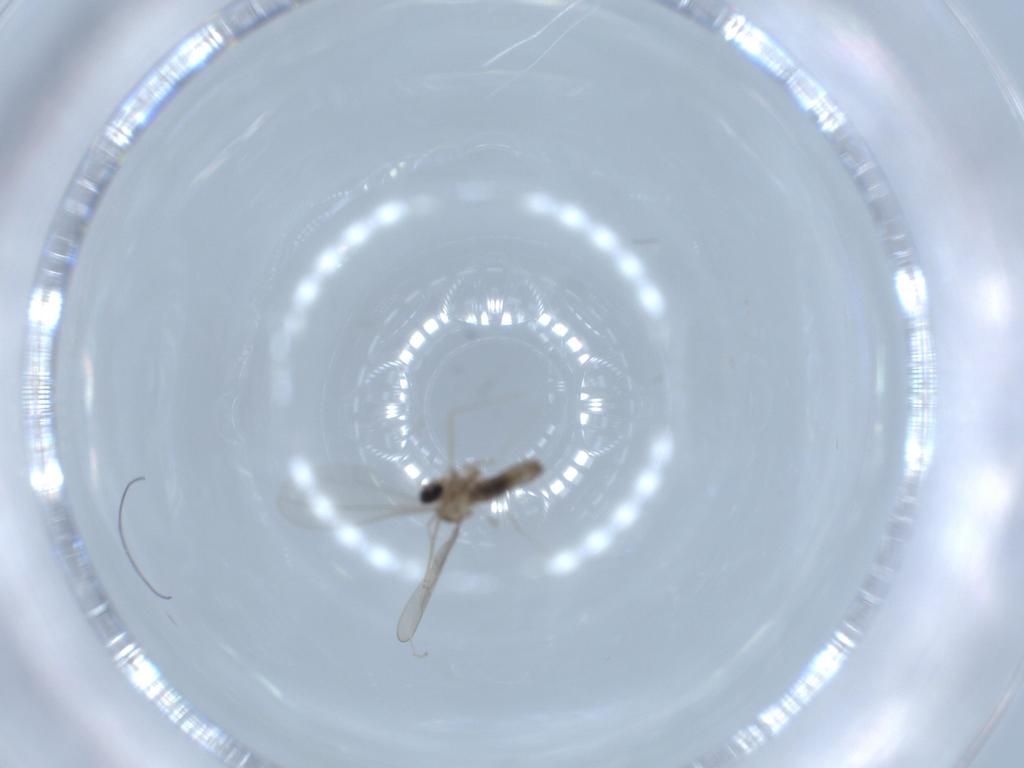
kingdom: Animalia
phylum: Arthropoda
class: Insecta
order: Diptera
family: Cecidomyiidae
